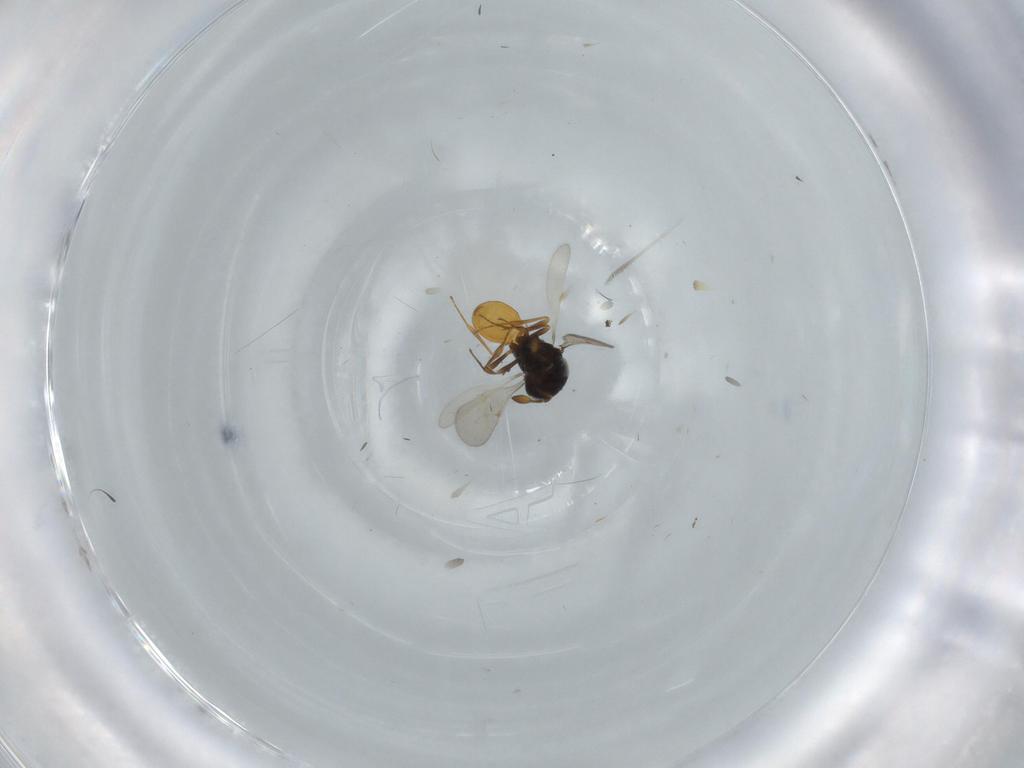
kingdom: Animalia
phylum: Arthropoda
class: Insecta
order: Hymenoptera
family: Scelionidae
